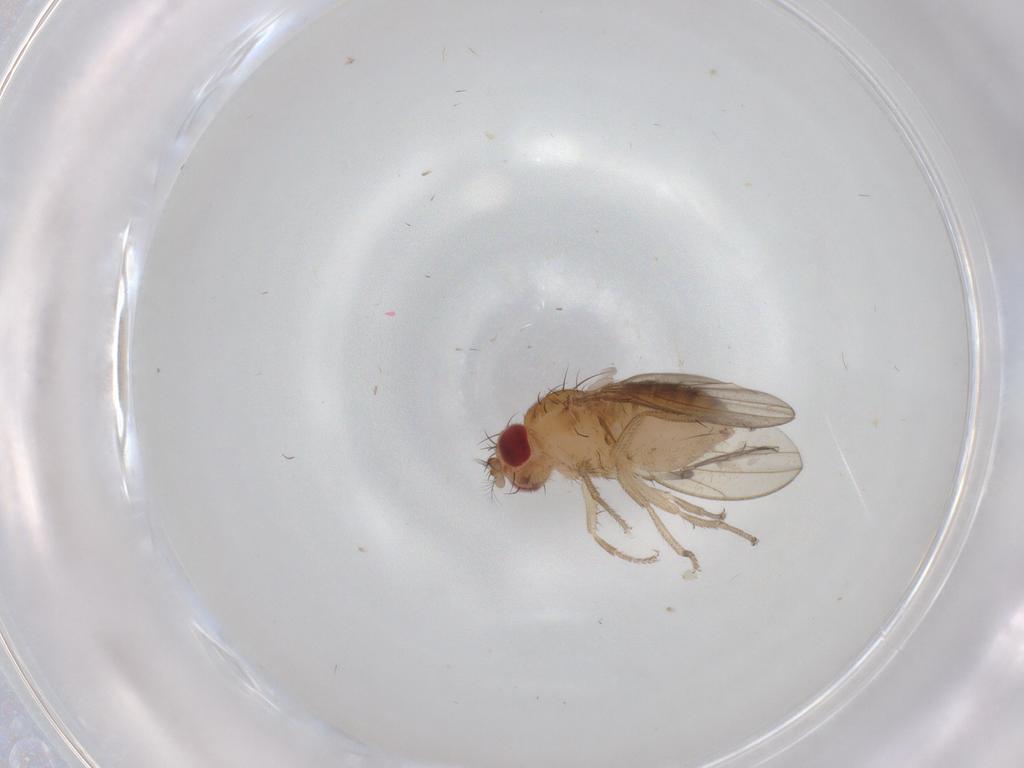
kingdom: Animalia
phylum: Arthropoda
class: Insecta
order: Diptera
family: Drosophilidae
